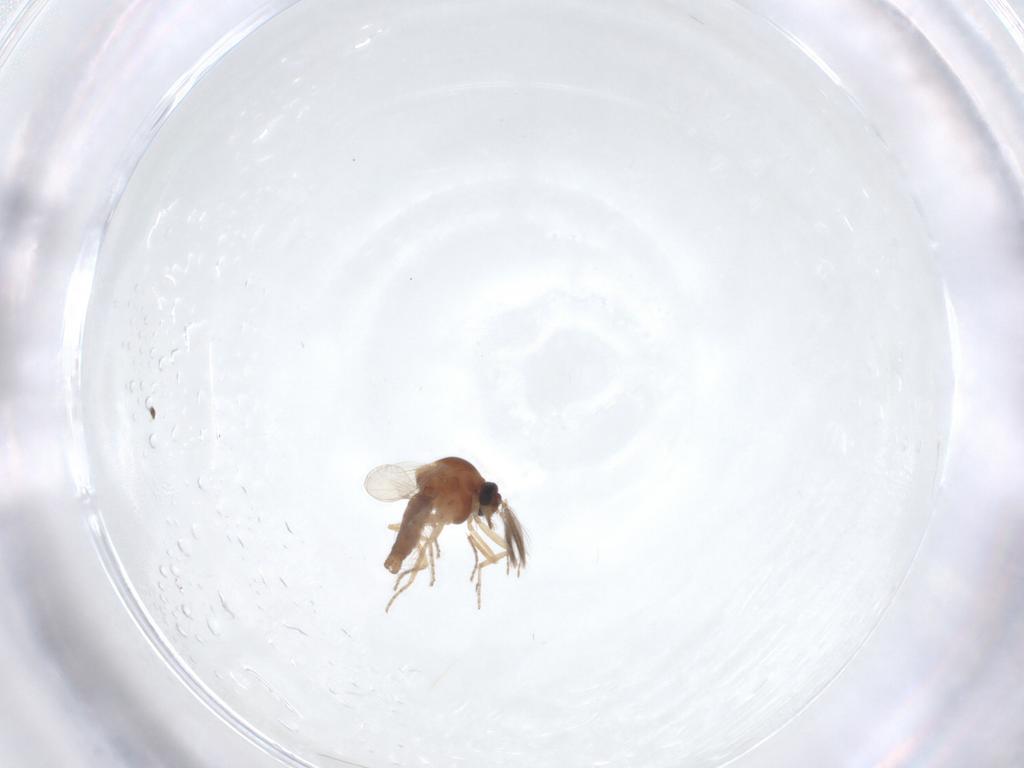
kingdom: Animalia
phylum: Arthropoda
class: Insecta
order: Diptera
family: Ceratopogonidae
